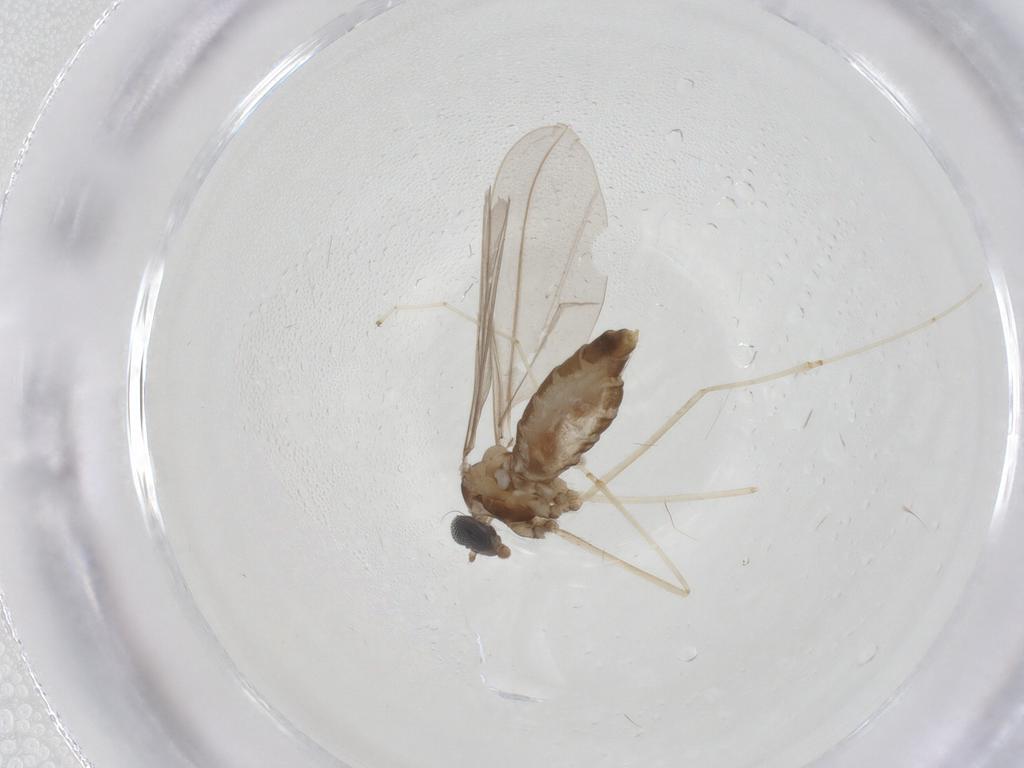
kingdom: Animalia
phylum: Arthropoda
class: Insecta
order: Diptera
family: Cecidomyiidae
